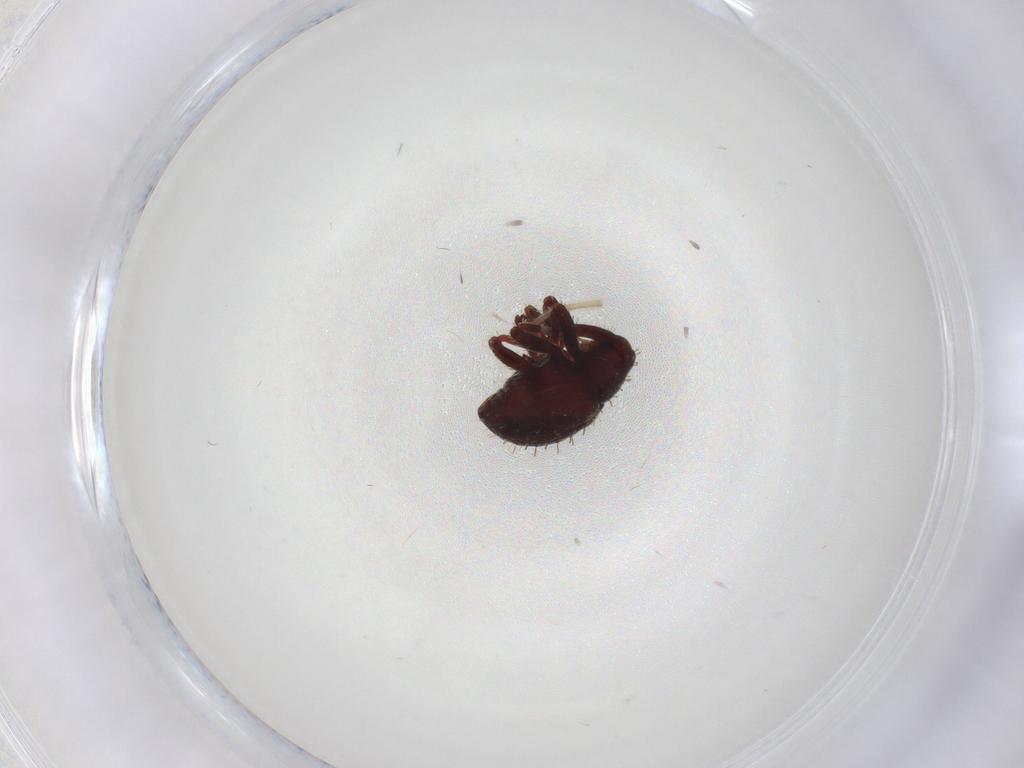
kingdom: Animalia
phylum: Arthropoda
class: Insecta
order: Coleoptera
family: Curculionidae
